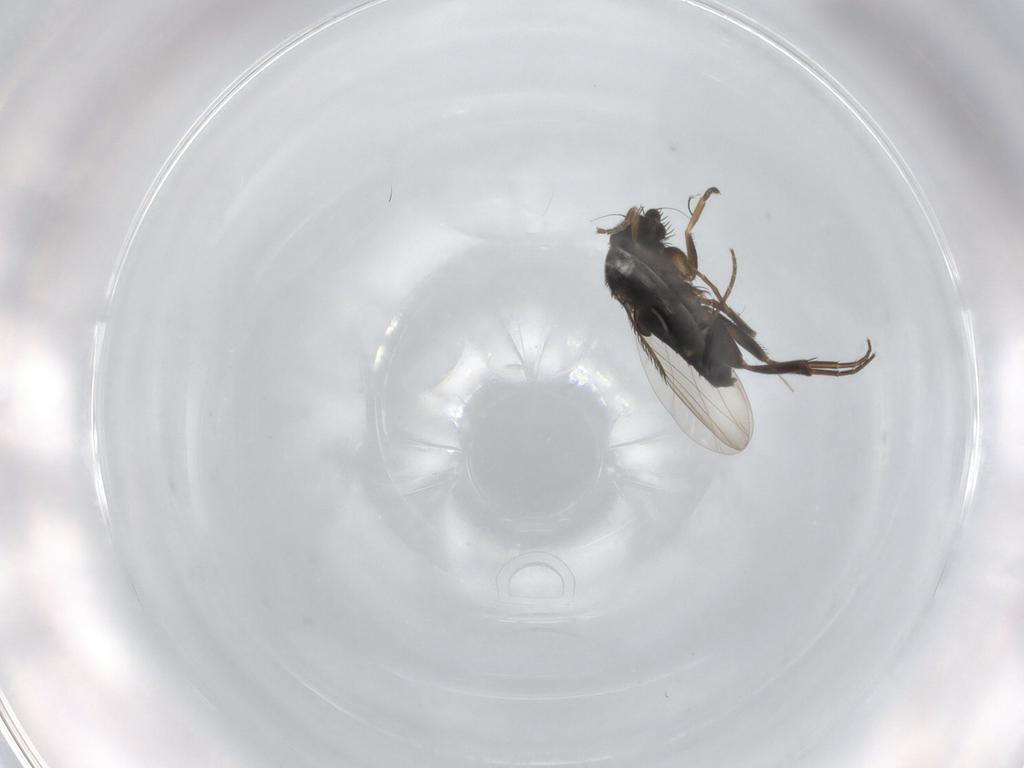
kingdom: Animalia
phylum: Arthropoda
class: Insecta
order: Diptera
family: Phoridae
